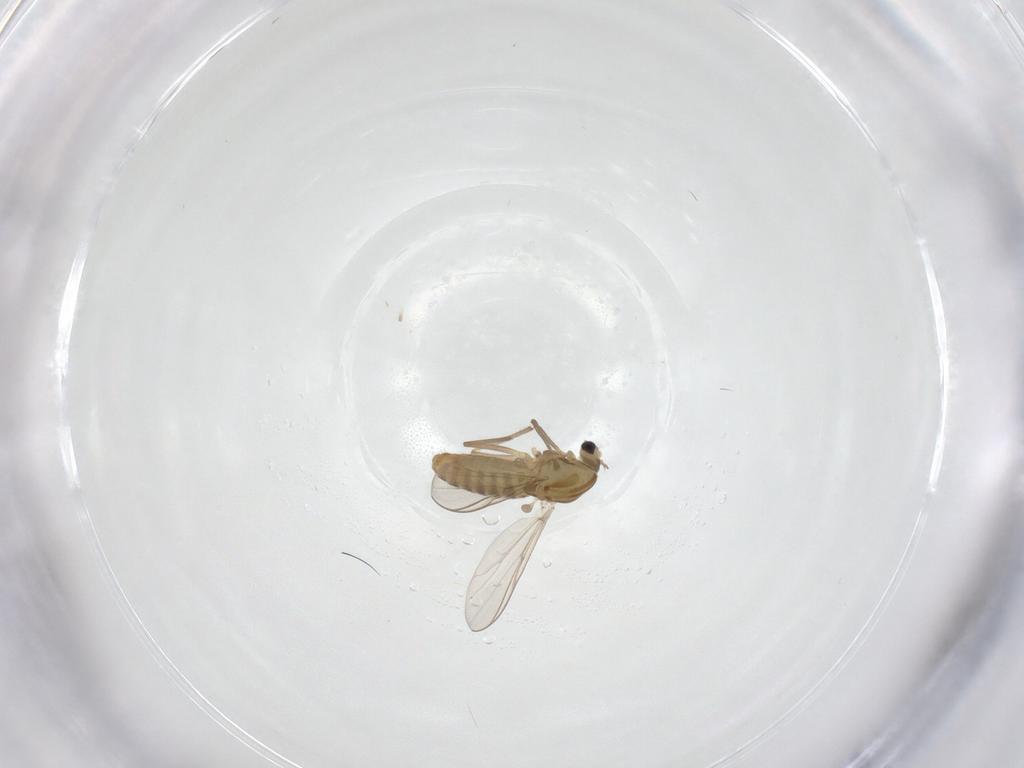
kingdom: Animalia
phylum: Arthropoda
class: Insecta
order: Diptera
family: Chironomidae
